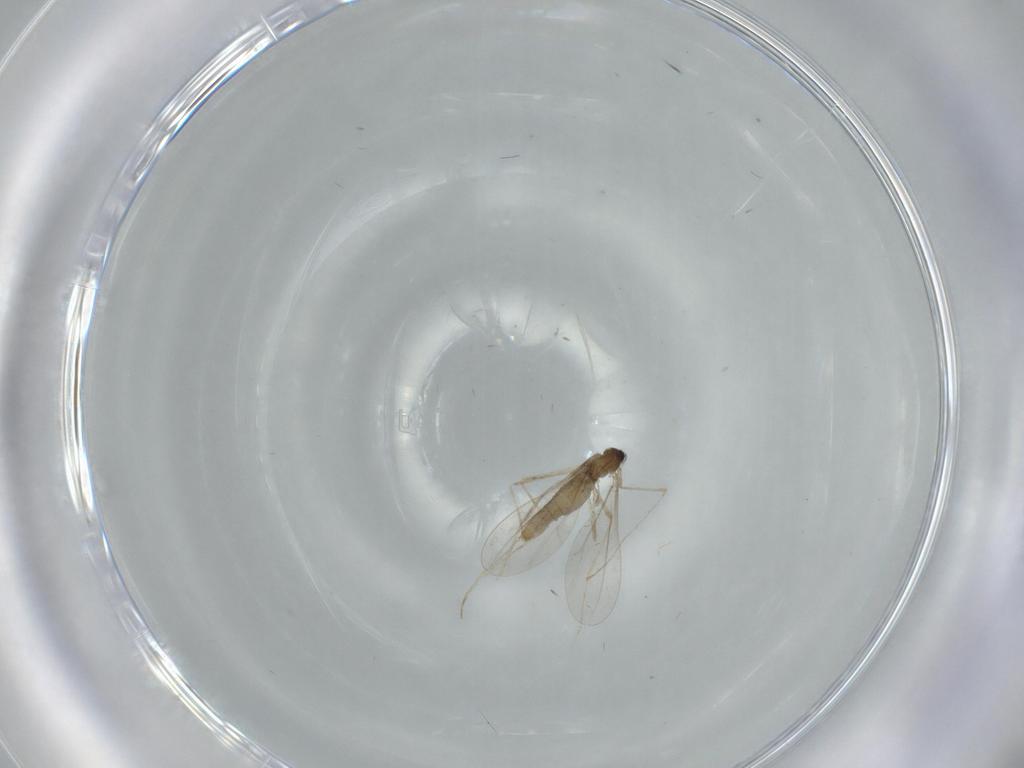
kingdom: Animalia
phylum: Arthropoda
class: Insecta
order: Diptera
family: Cecidomyiidae
